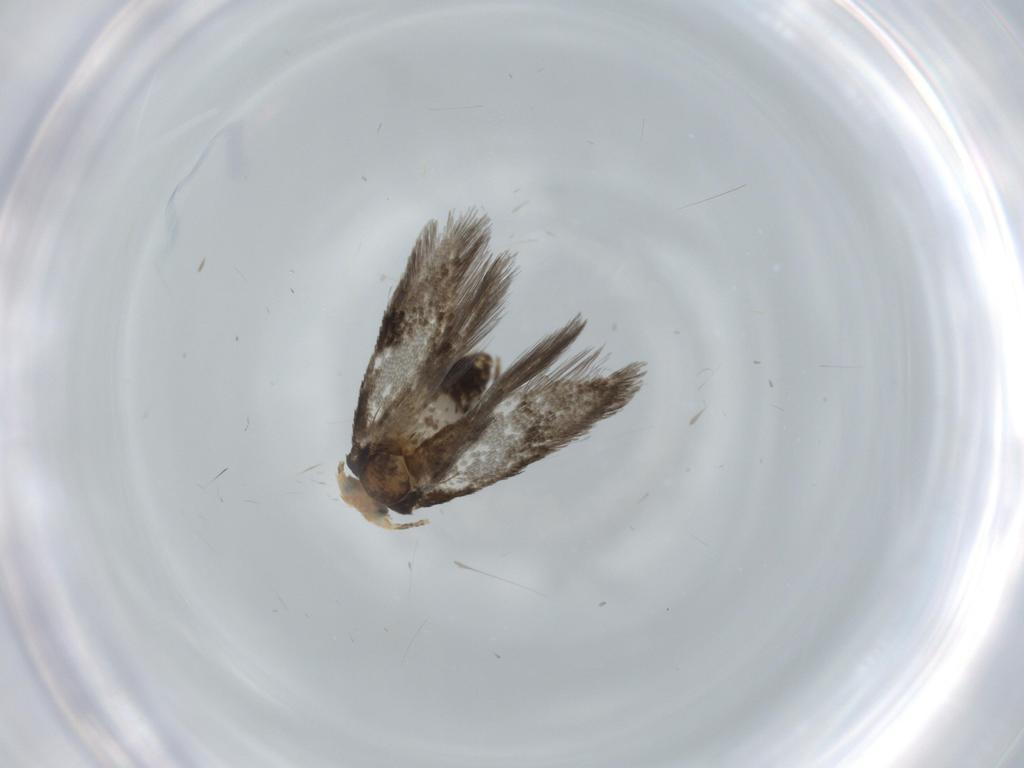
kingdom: Animalia
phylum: Arthropoda
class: Insecta
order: Lepidoptera
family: Nepticulidae
